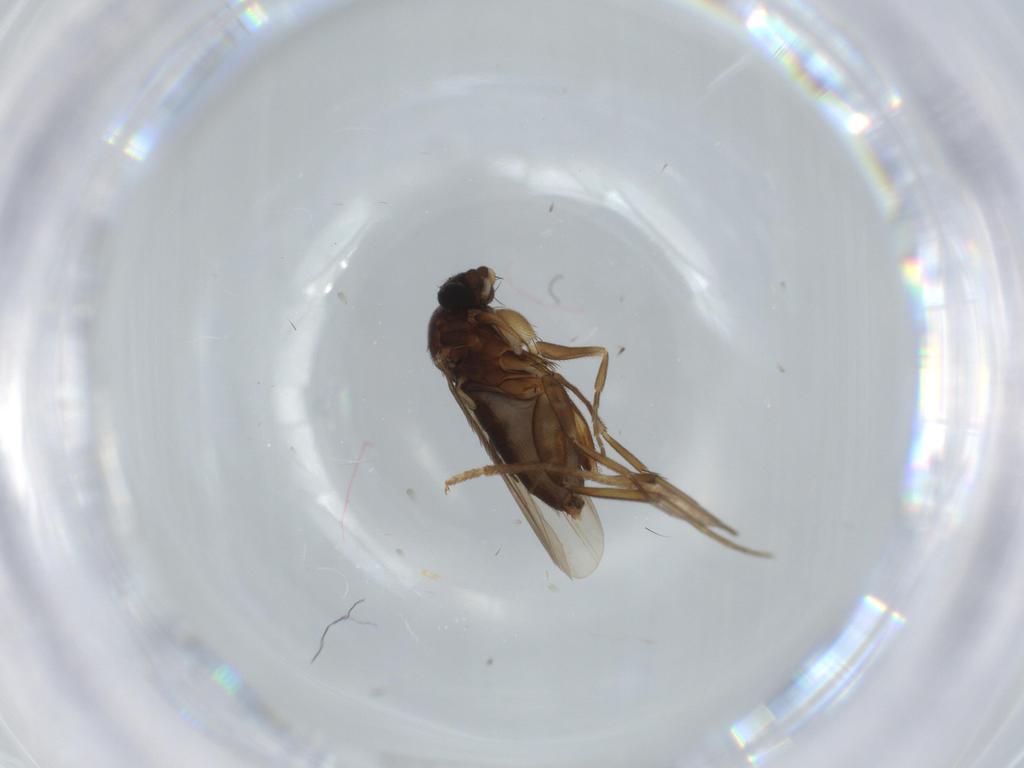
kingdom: Animalia
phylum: Arthropoda
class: Insecta
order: Diptera
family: Phoridae
